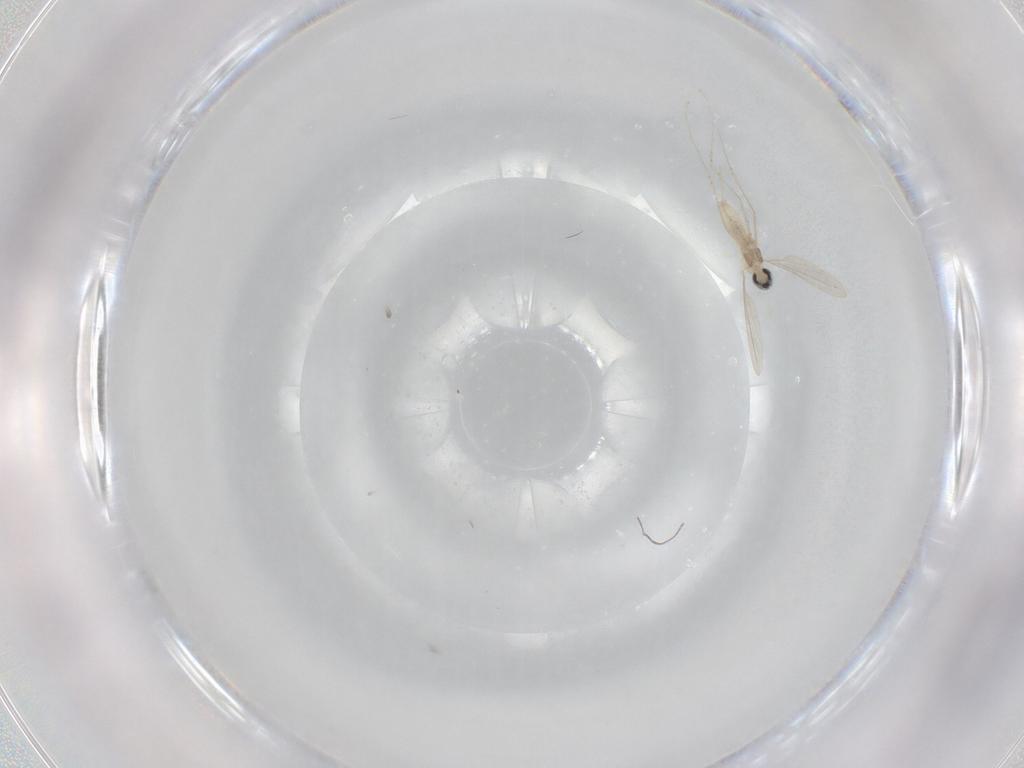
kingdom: Animalia
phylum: Arthropoda
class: Insecta
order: Diptera
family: Cecidomyiidae
